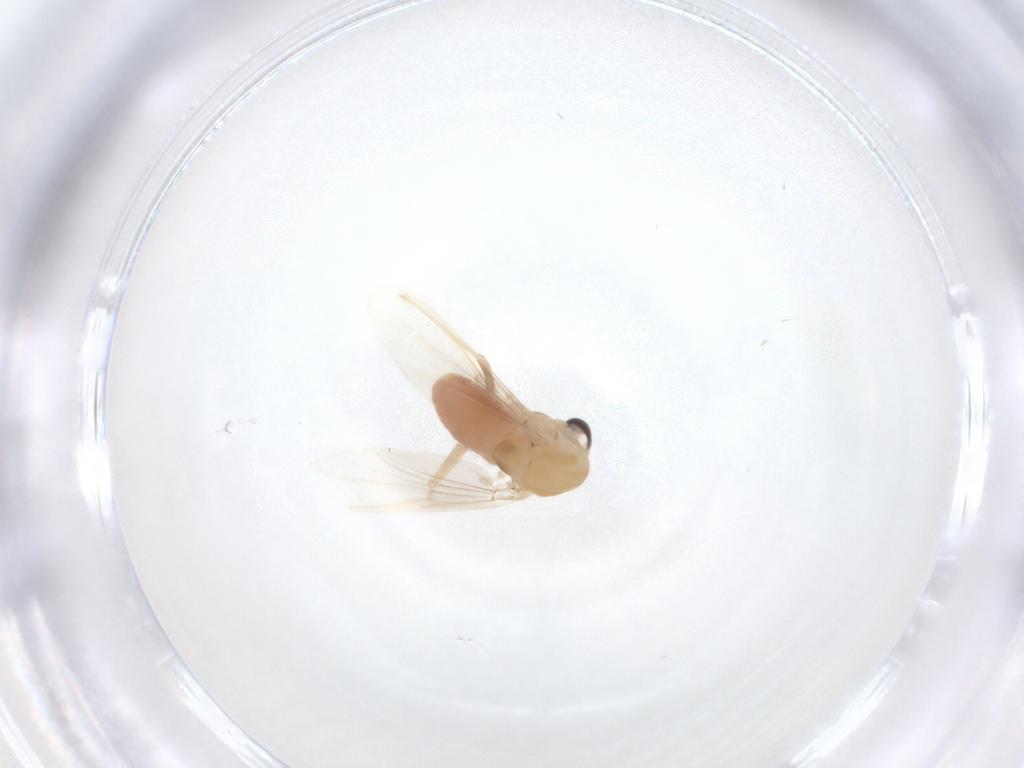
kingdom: Animalia
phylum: Arthropoda
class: Insecta
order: Diptera
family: Chironomidae
